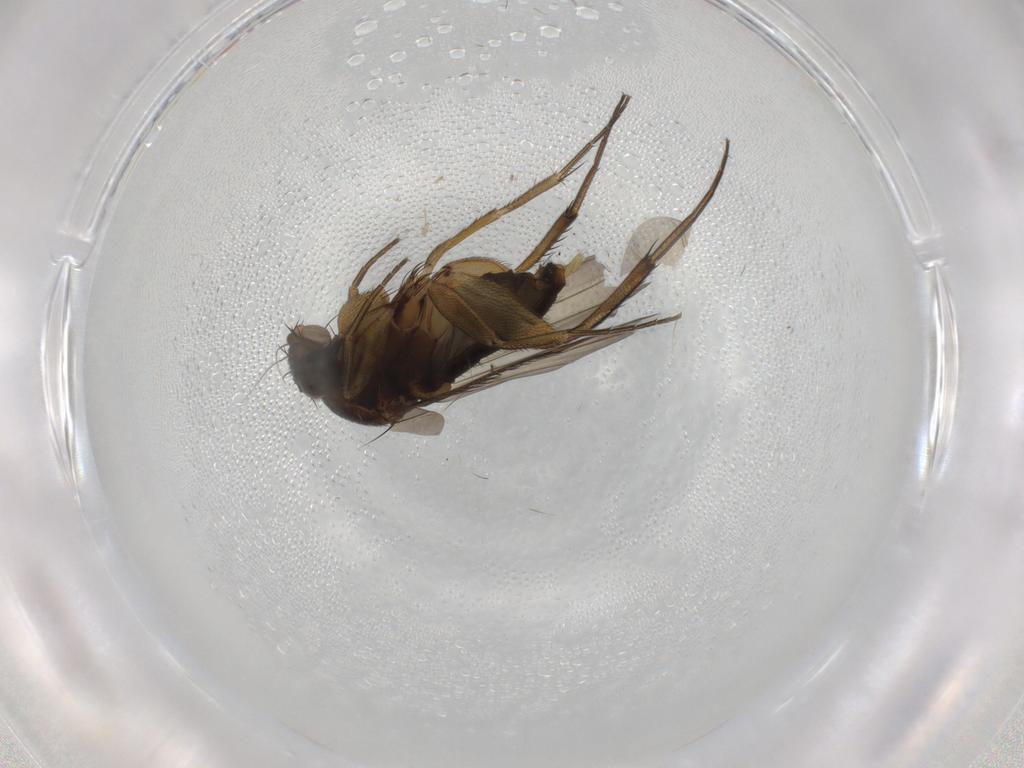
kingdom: Animalia
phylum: Arthropoda
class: Insecta
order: Diptera
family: Phoridae
